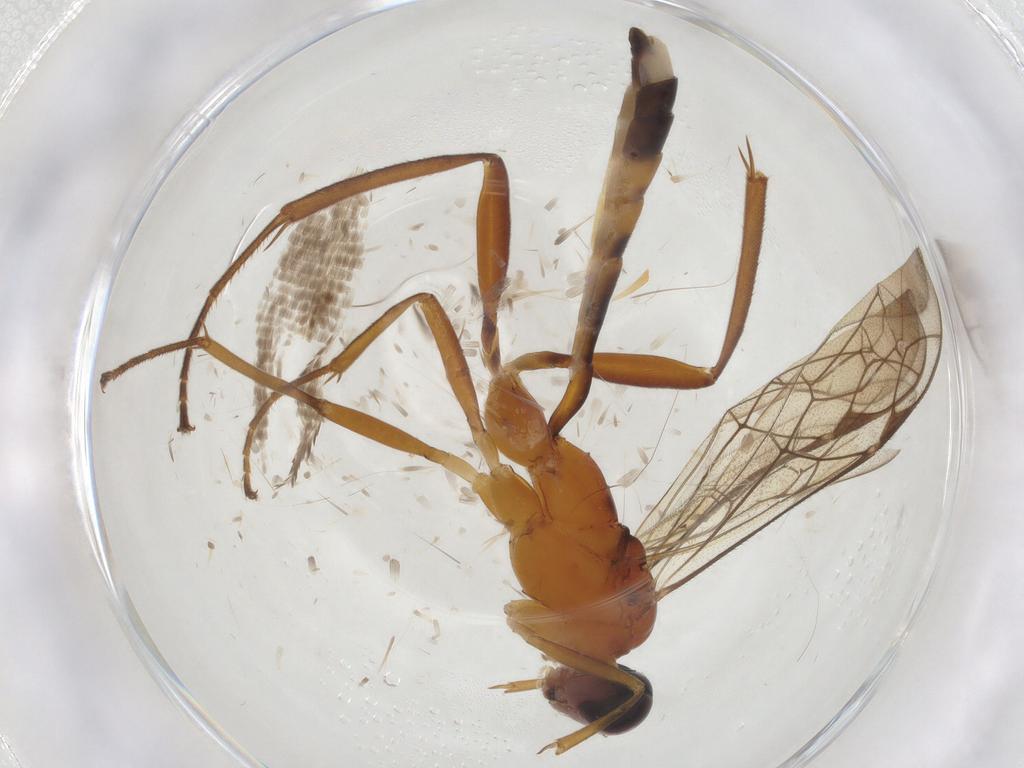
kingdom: Animalia
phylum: Arthropoda
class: Insecta
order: Hymenoptera
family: Ichneumonidae
